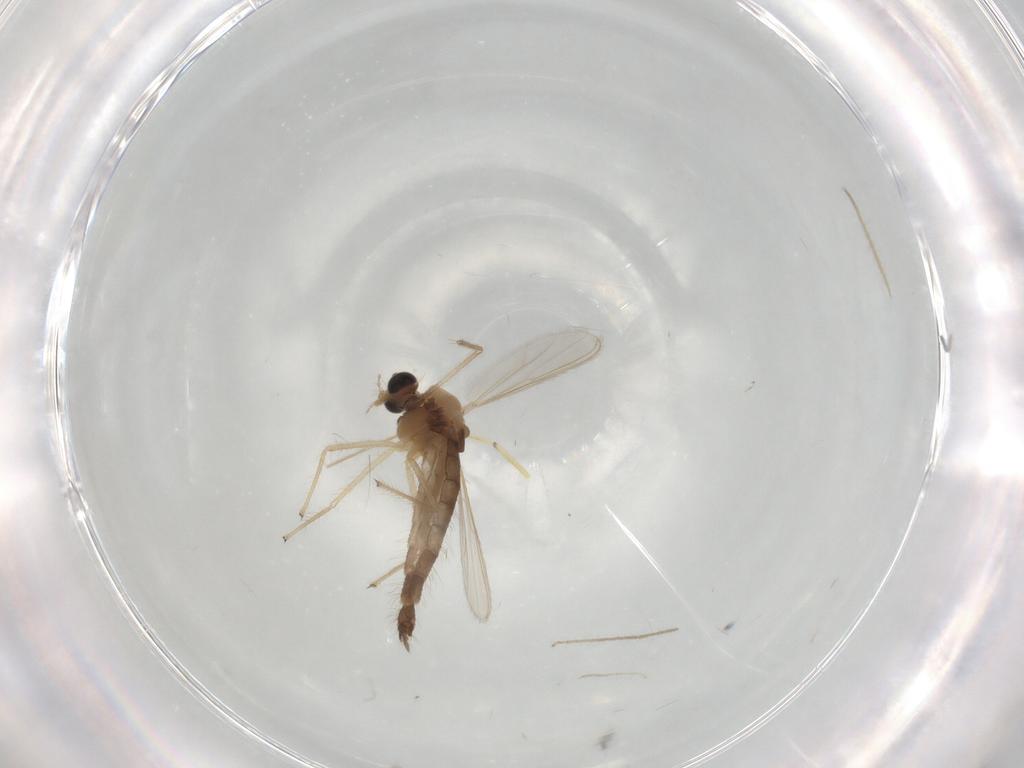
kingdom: Animalia
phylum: Arthropoda
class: Insecta
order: Diptera
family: Chironomidae
